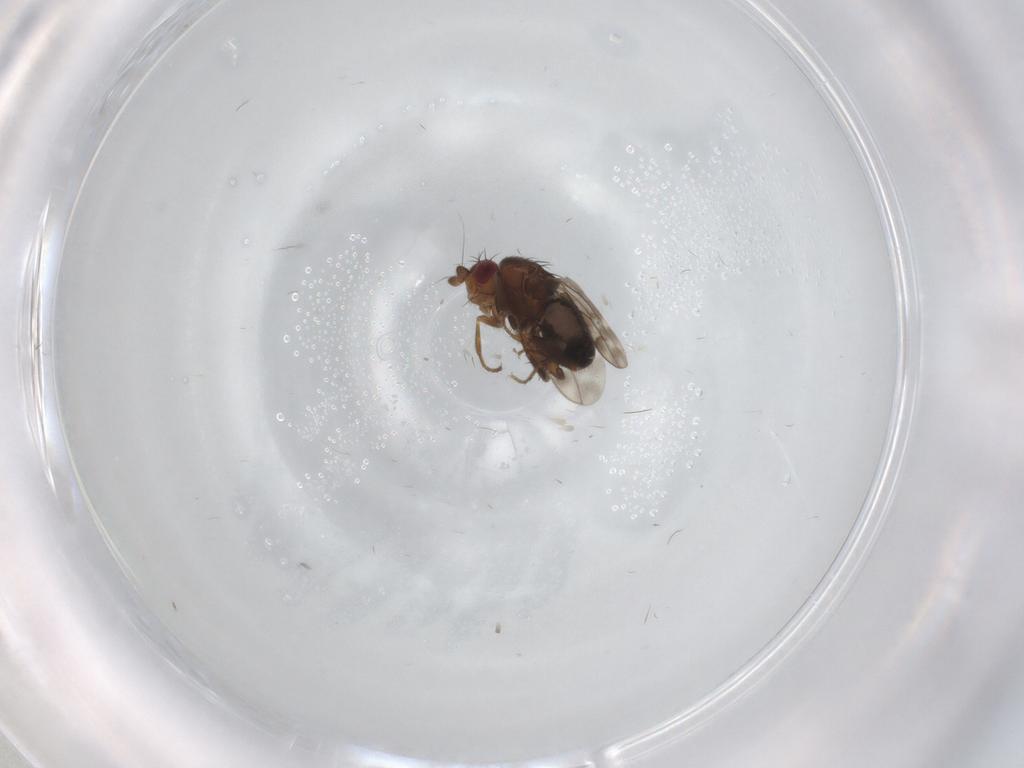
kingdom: Animalia
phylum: Arthropoda
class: Insecta
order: Diptera
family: Sphaeroceridae
